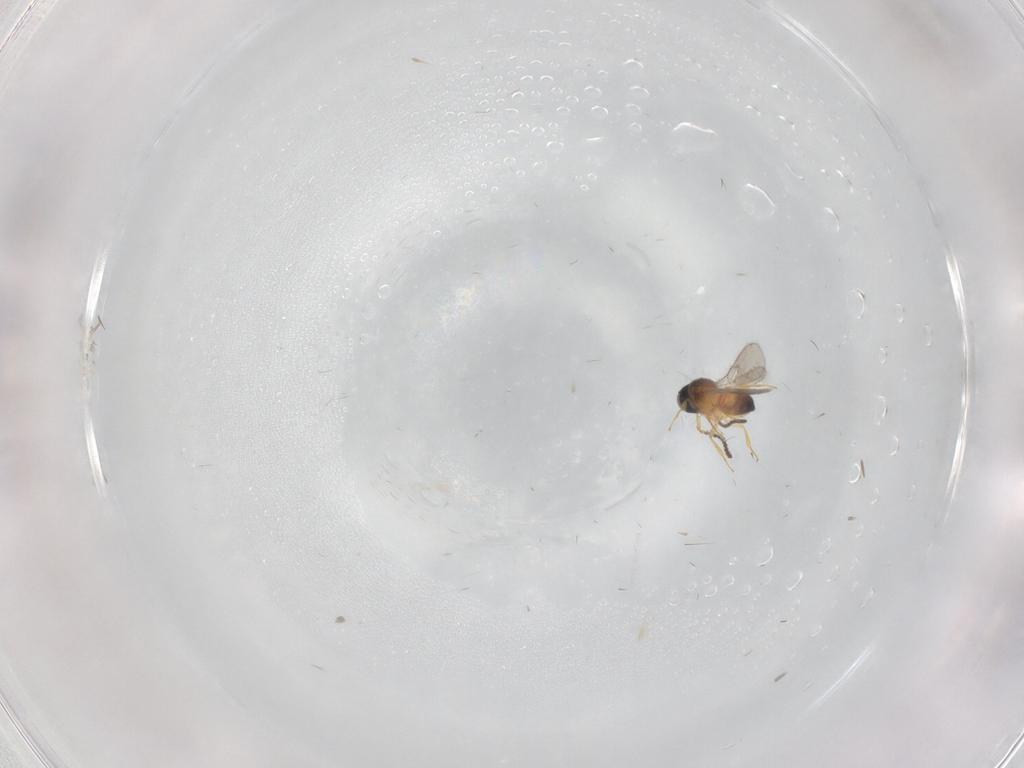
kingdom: Animalia
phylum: Arthropoda
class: Insecta
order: Hymenoptera
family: Scelionidae
